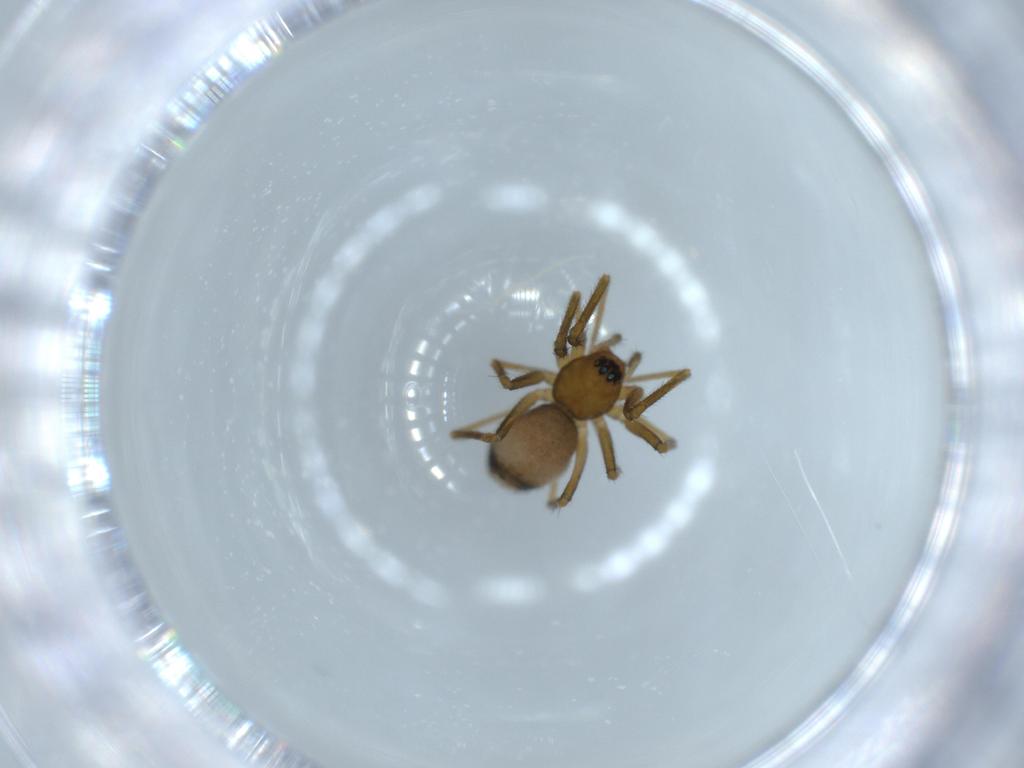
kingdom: Animalia
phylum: Arthropoda
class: Arachnida
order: Araneae
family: Linyphiidae
